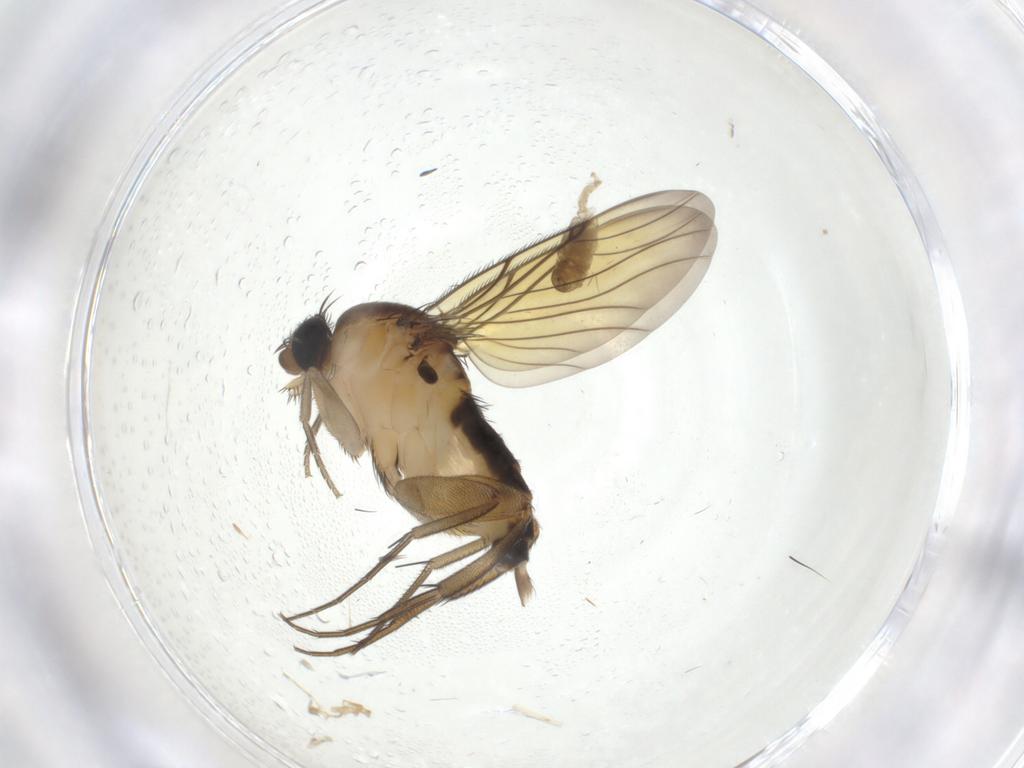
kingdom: Animalia
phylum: Arthropoda
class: Insecta
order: Diptera
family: Phoridae
